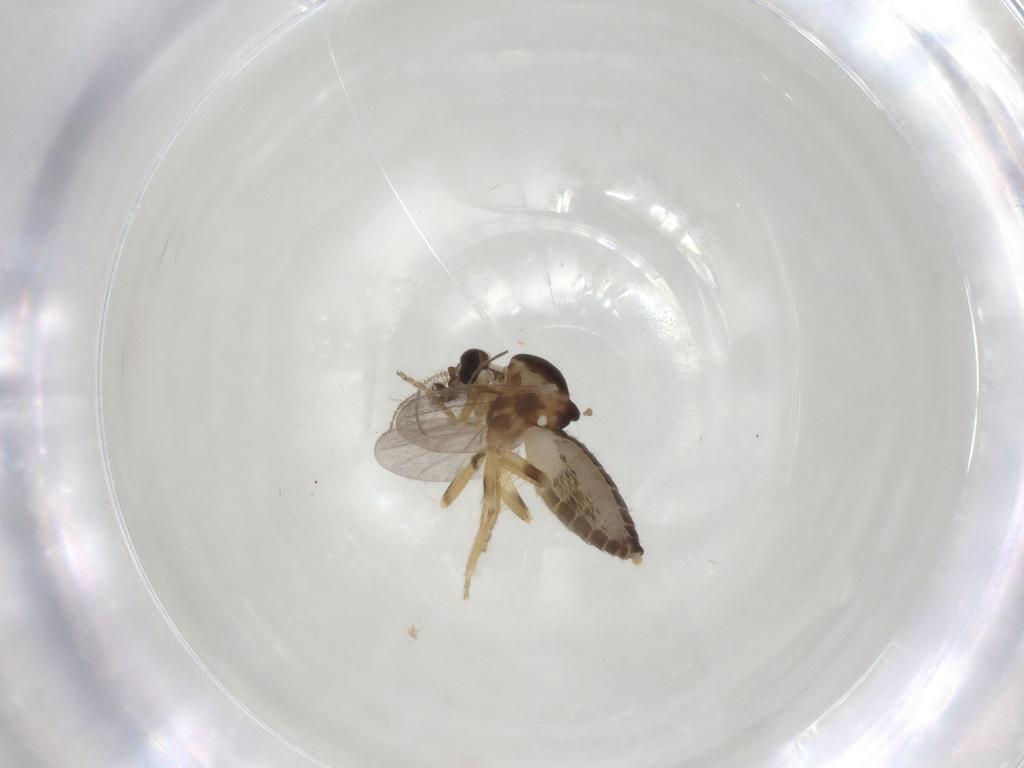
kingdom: Animalia
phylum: Arthropoda
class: Insecta
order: Diptera
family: Ceratopogonidae
